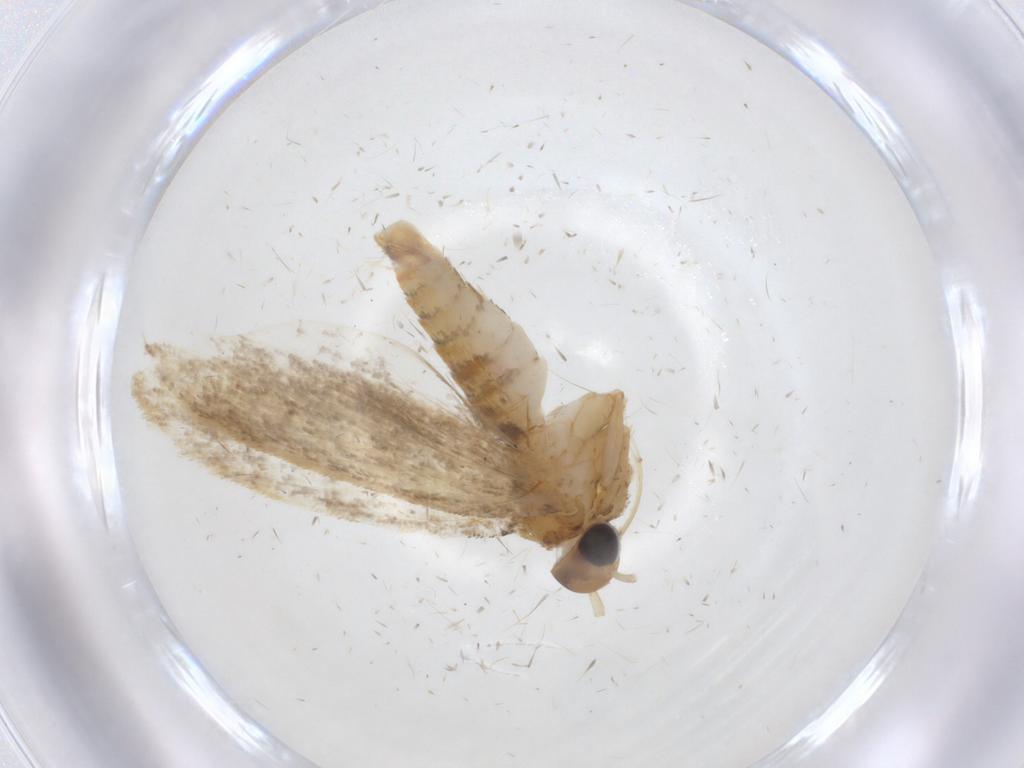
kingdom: Animalia
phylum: Arthropoda
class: Insecta
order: Lepidoptera
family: Oecophoridae
